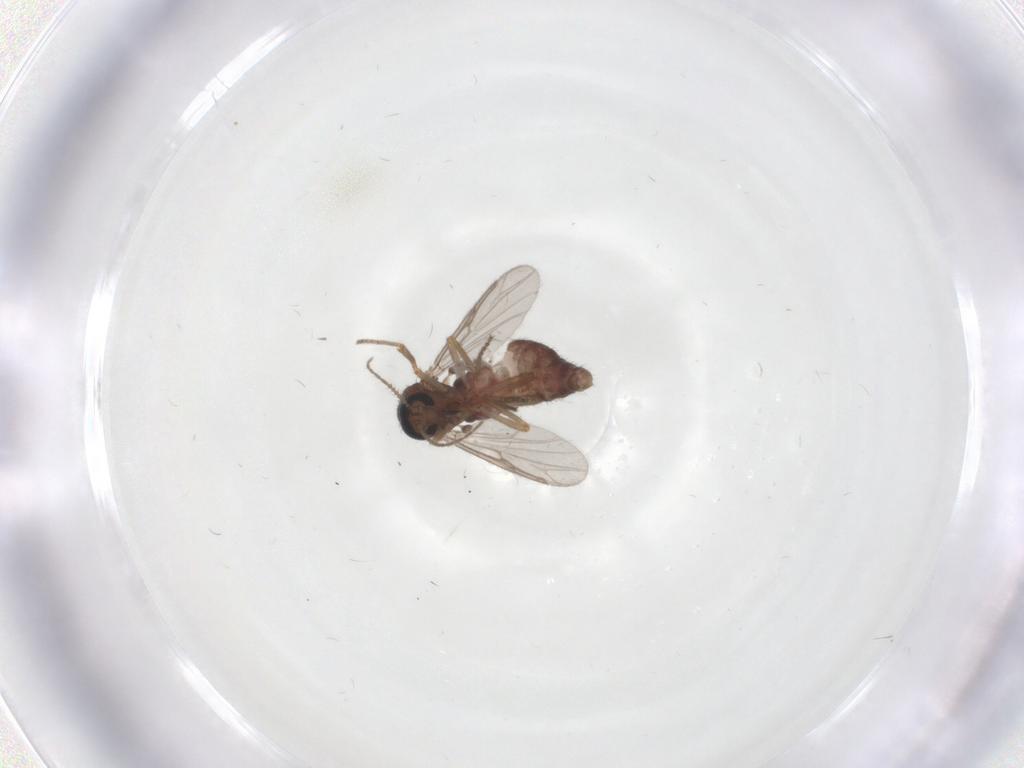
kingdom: Animalia
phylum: Arthropoda
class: Insecta
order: Diptera
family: Ceratopogonidae
